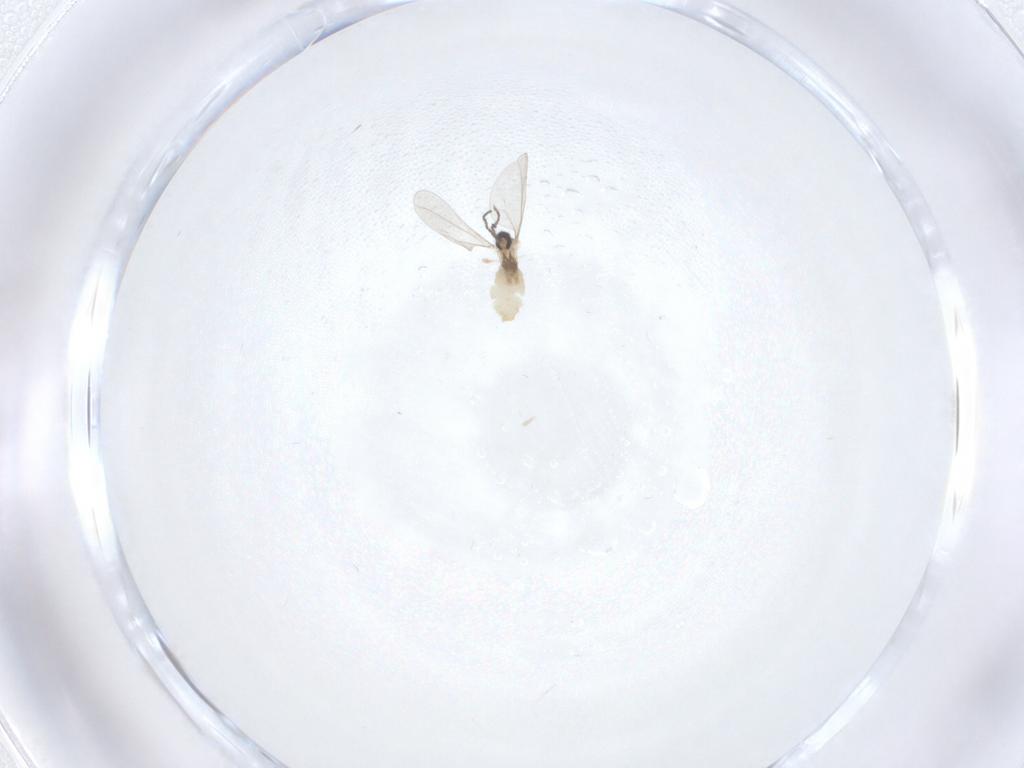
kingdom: Animalia
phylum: Arthropoda
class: Insecta
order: Diptera
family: Cecidomyiidae
